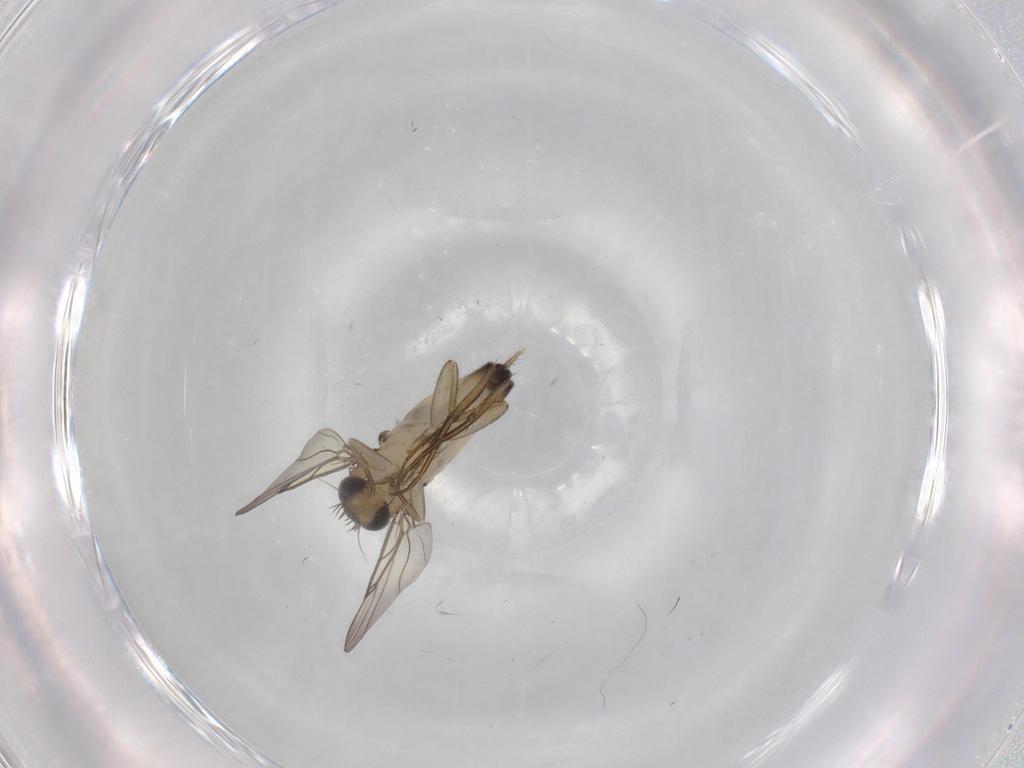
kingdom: Animalia
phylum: Arthropoda
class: Insecta
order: Diptera
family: Phoridae
